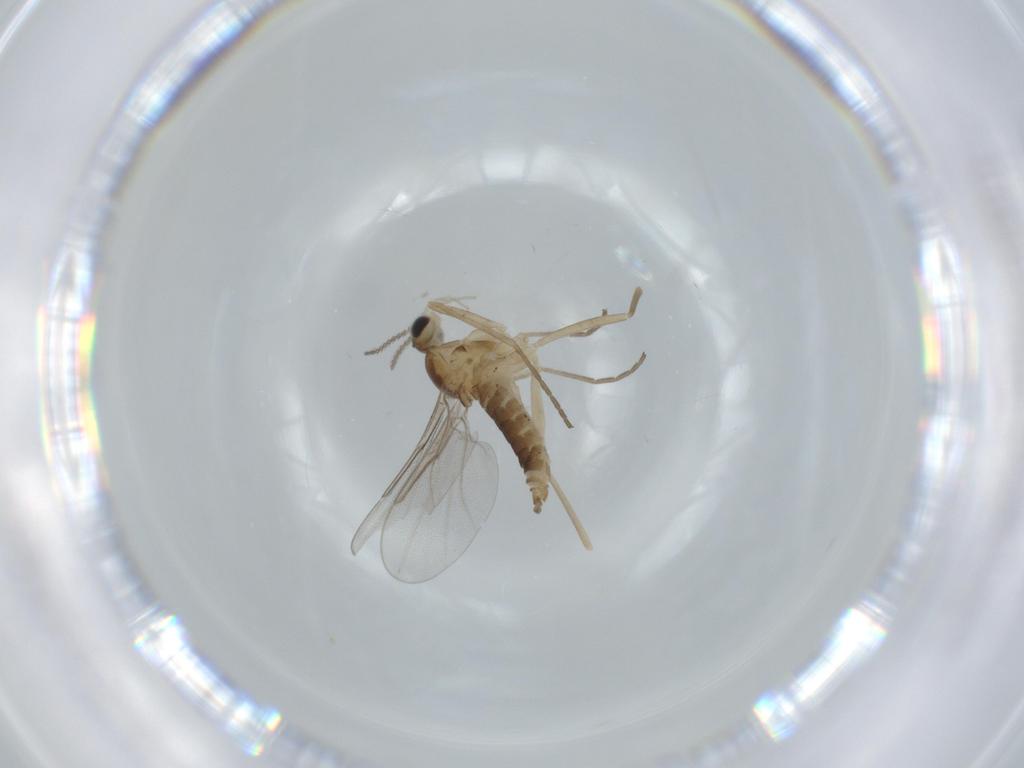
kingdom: Animalia
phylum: Arthropoda
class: Insecta
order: Diptera
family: Cecidomyiidae
